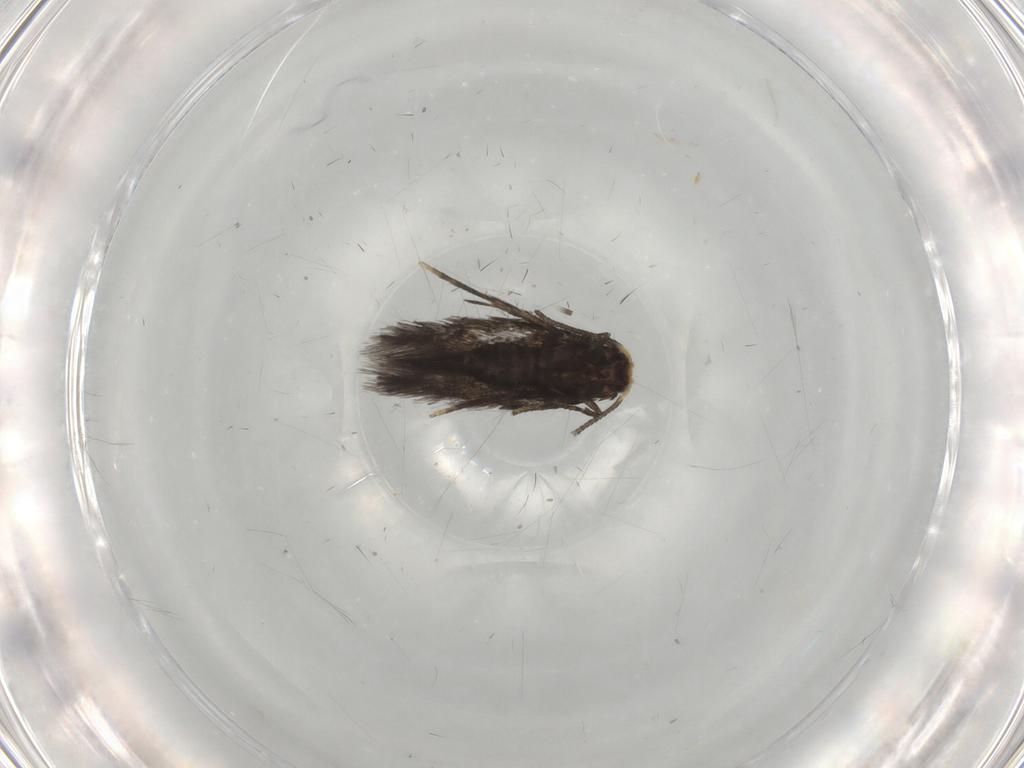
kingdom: Animalia
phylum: Arthropoda
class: Insecta
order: Lepidoptera
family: Nepticulidae
